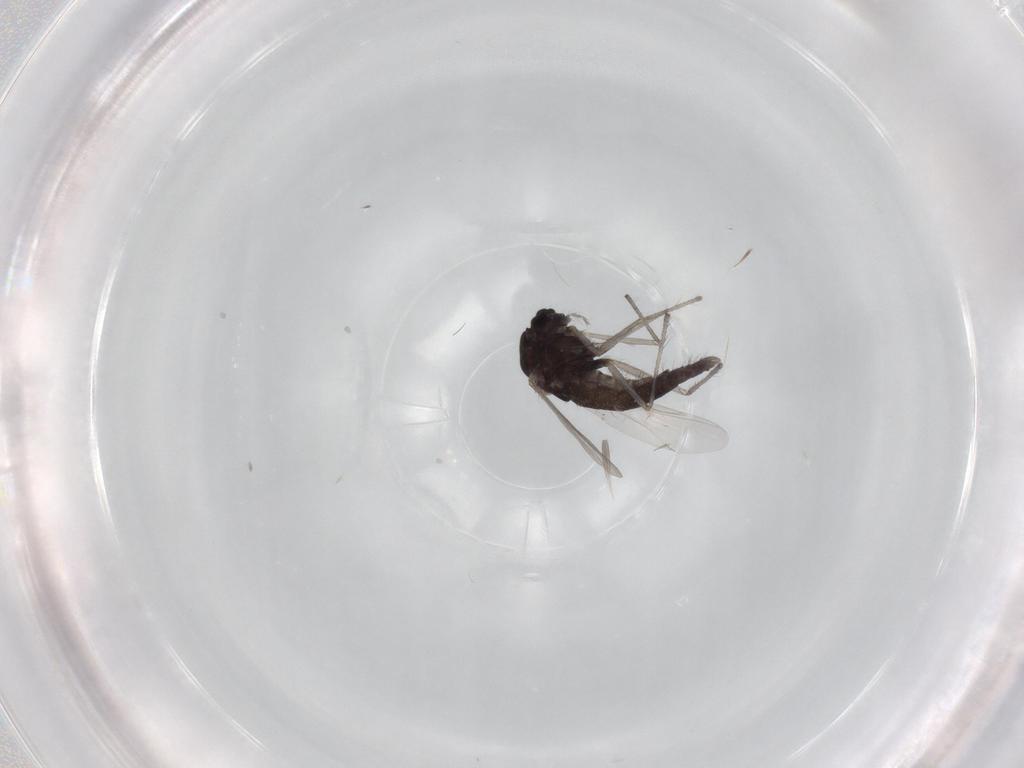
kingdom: Animalia
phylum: Arthropoda
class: Insecta
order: Diptera
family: Chironomidae
